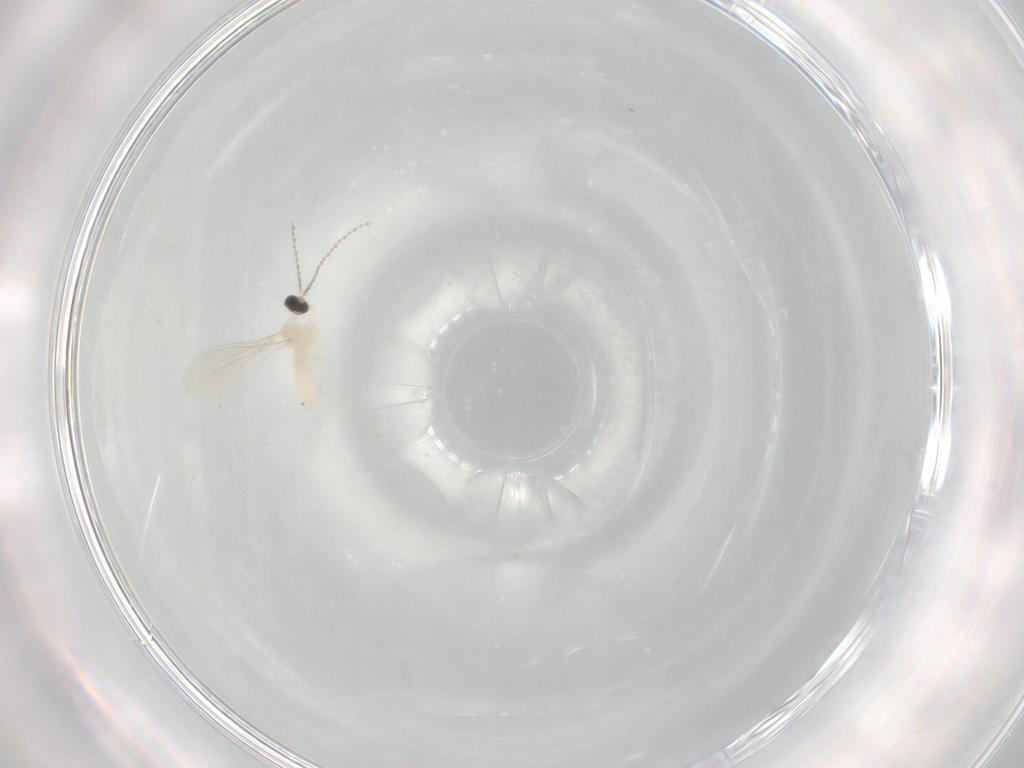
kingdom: Animalia
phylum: Arthropoda
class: Insecta
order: Diptera
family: Cecidomyiidae
